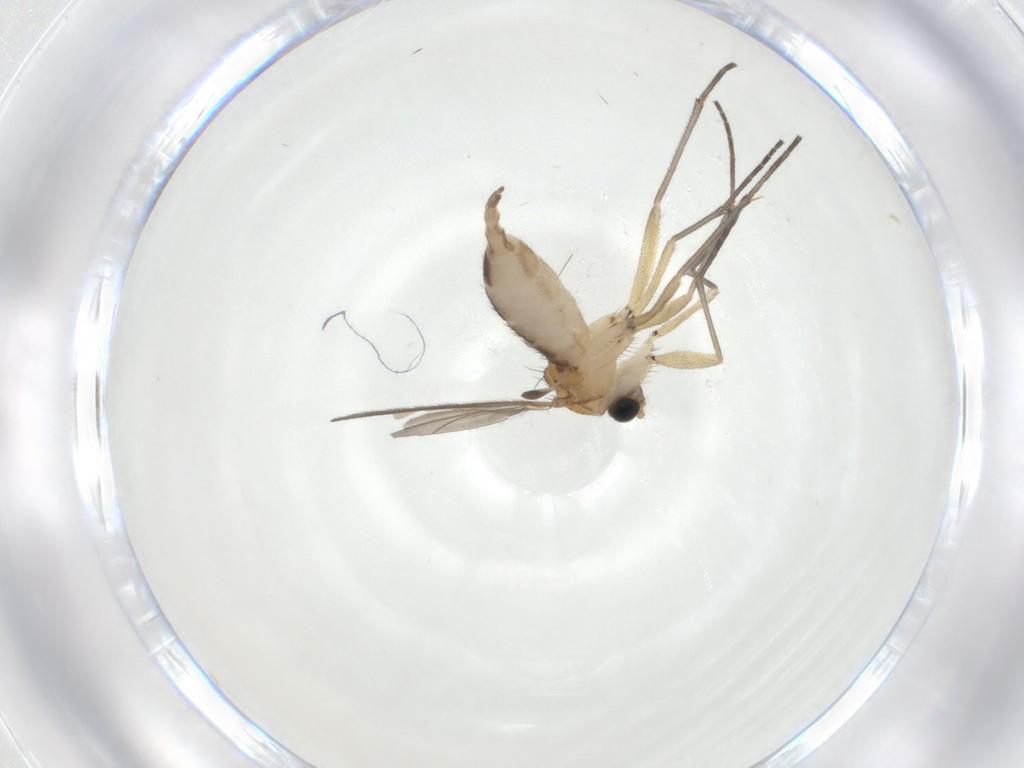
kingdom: Animalia
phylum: Arthropoda
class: Insecta
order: Diptera
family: Sciaridae
